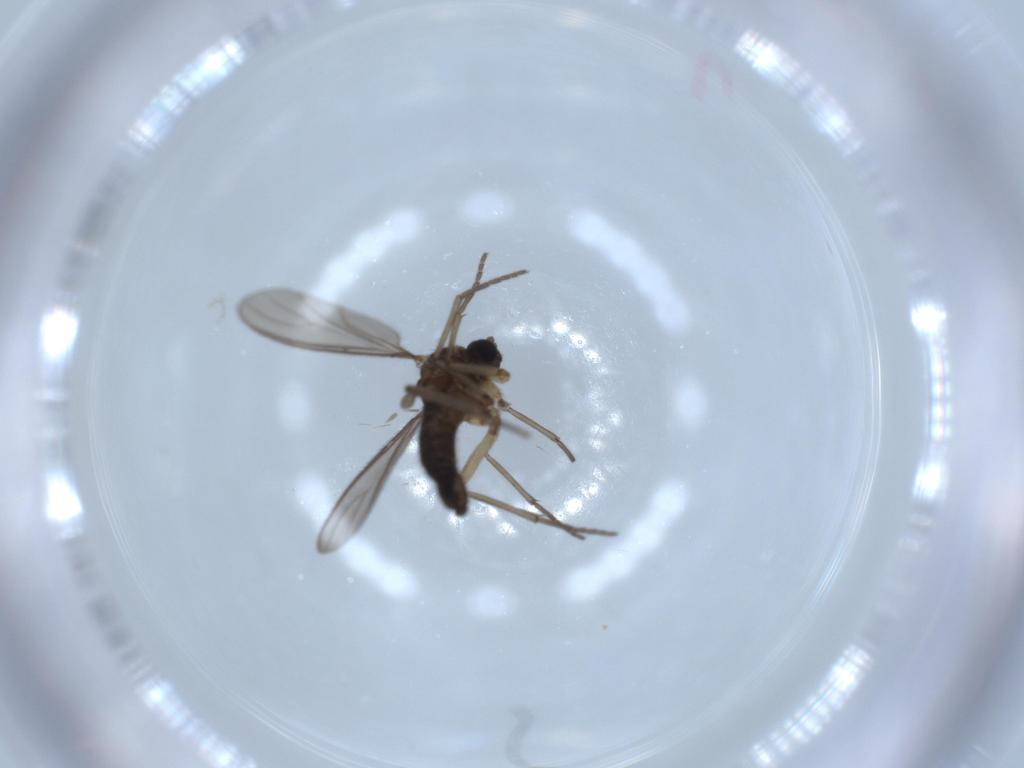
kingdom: Animalia
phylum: Arthropoda
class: Insecta
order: Diptera
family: Sciaridae
